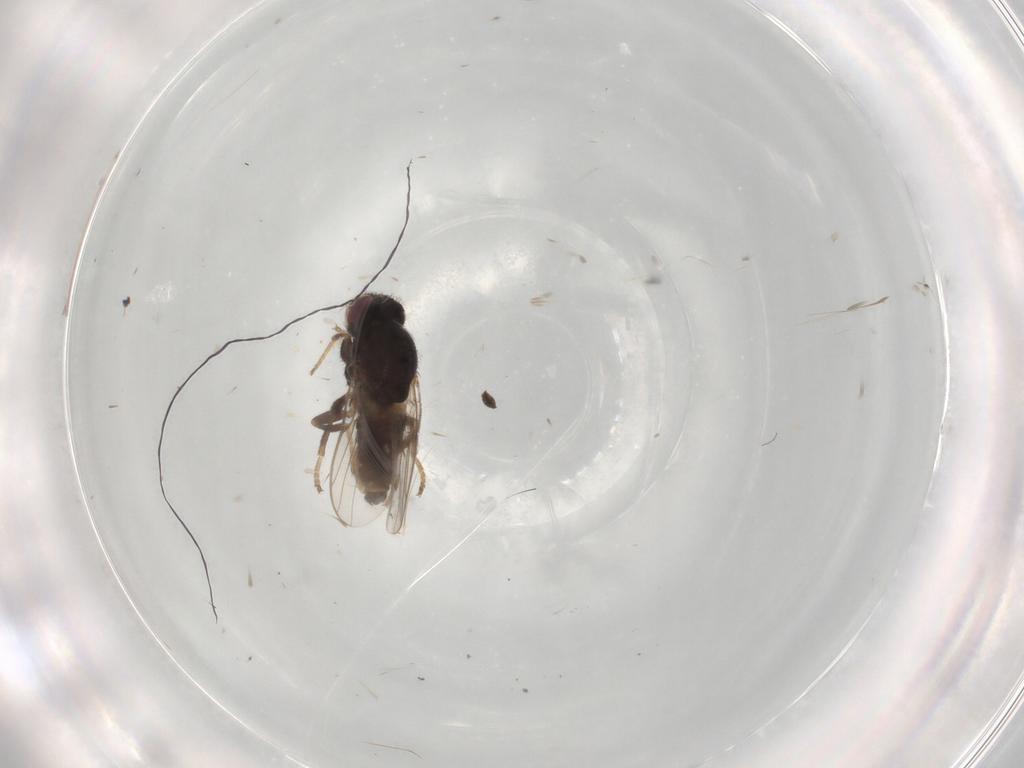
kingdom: Animalia
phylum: Arthropoda
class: Insecta
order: Diptera
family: Chloropidae
